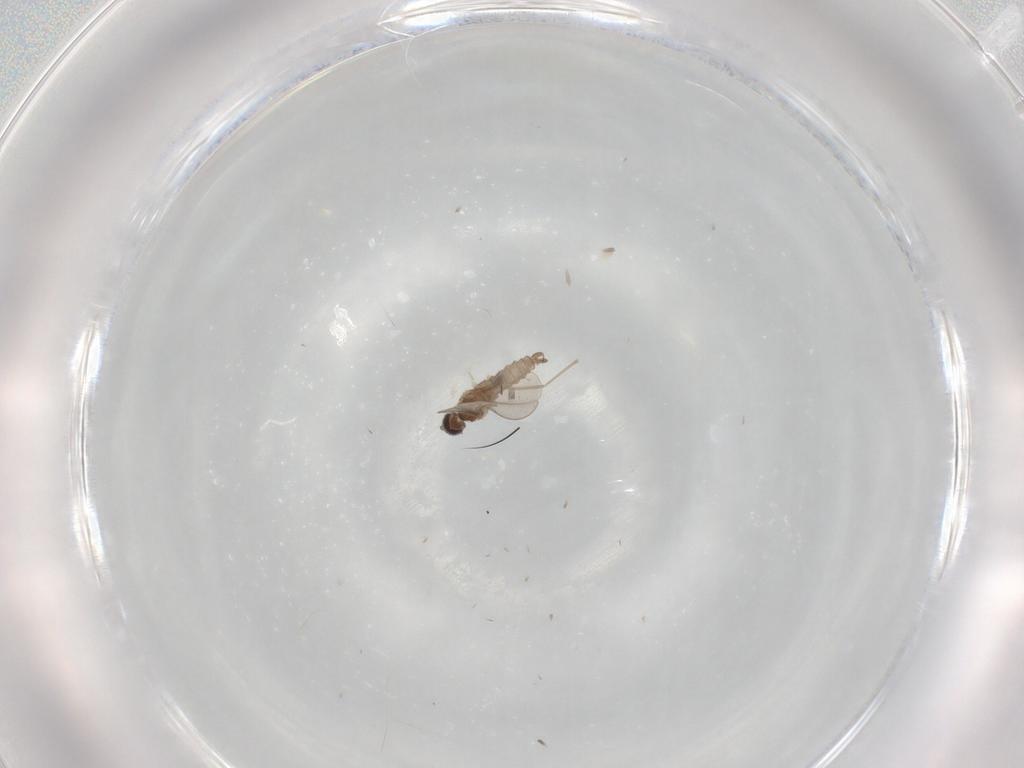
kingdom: Animalia
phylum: Arthropoda
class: Insecta
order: Diptera
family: Cecidomyiidae
